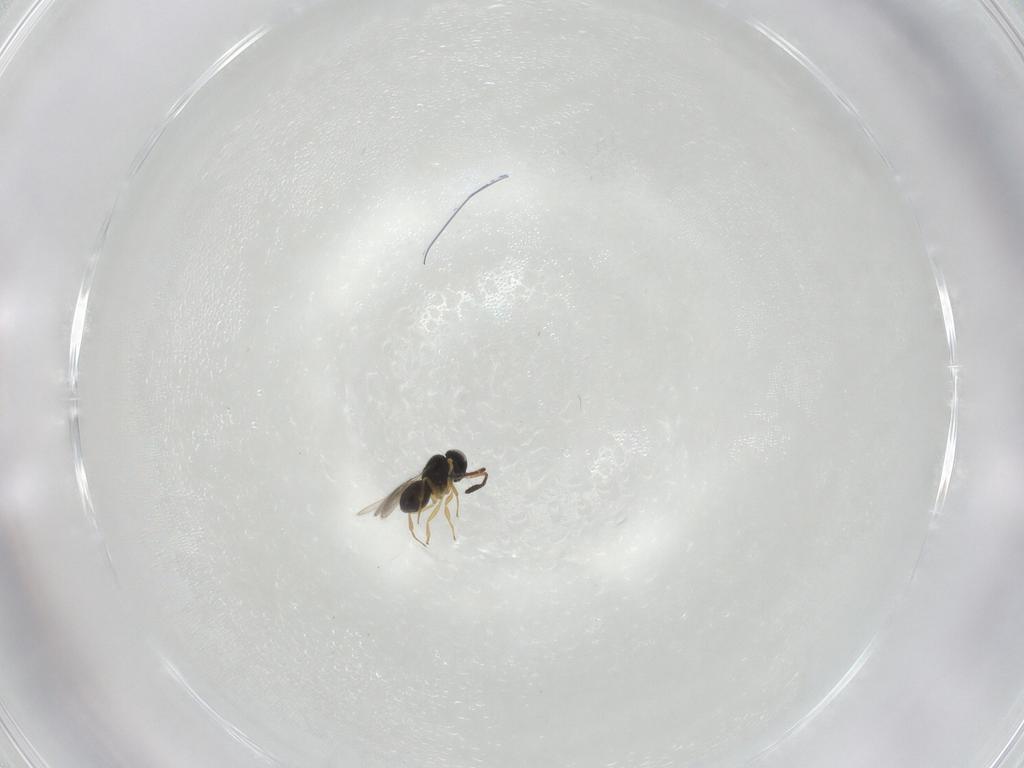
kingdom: Animalia
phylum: Arthropoda
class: Insecta
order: Hymenoptera
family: Scelionidae
